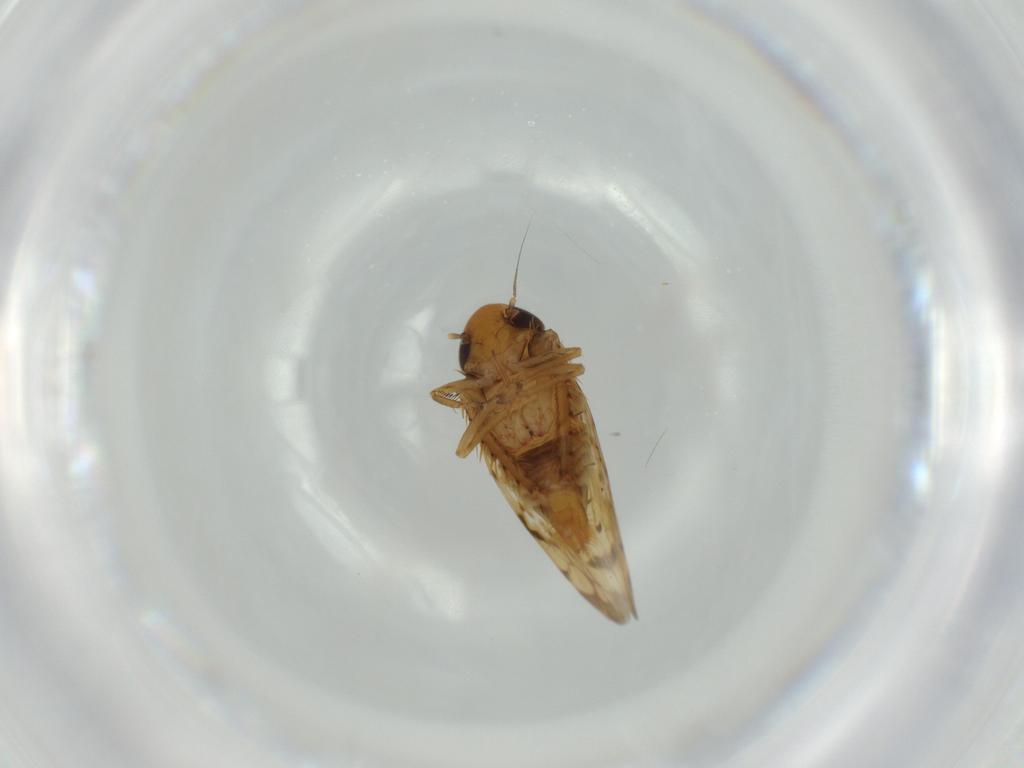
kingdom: Animalia
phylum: Arthropoda
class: Insecta
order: Hemiptera
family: Cicadellidae
